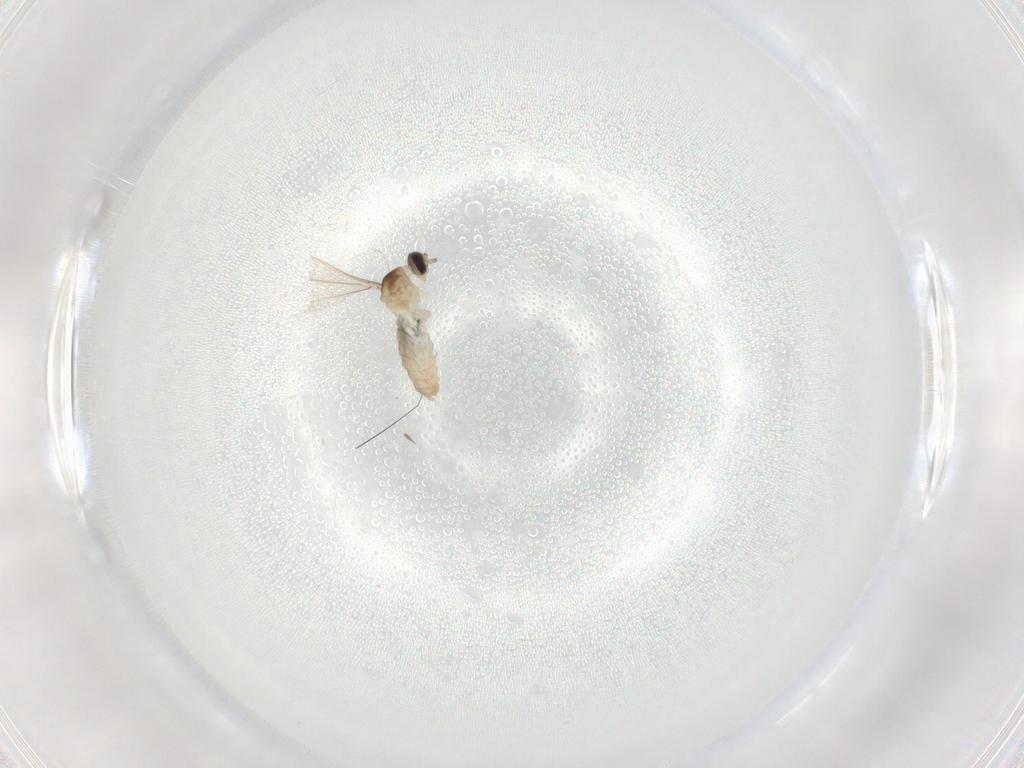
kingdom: Animalia
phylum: Arthropoda
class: Insecta
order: Diptera
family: Cecidomyiidae
